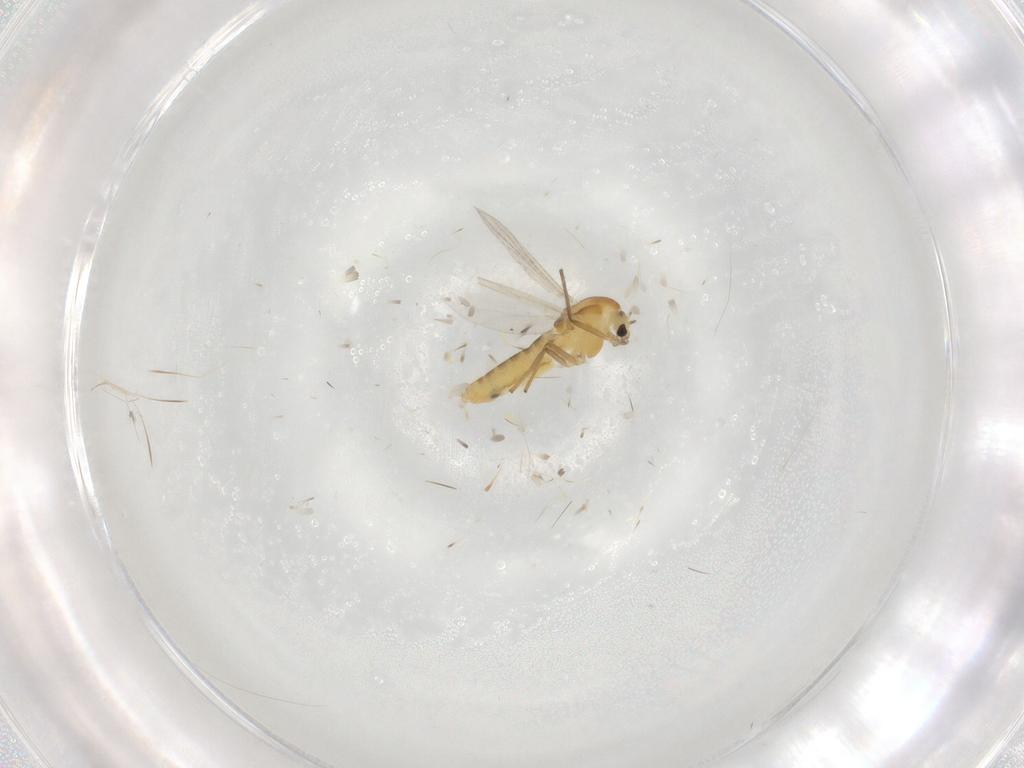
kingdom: Animalia
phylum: Arthropoda
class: Insecta
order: Diptera
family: Chironomidae
